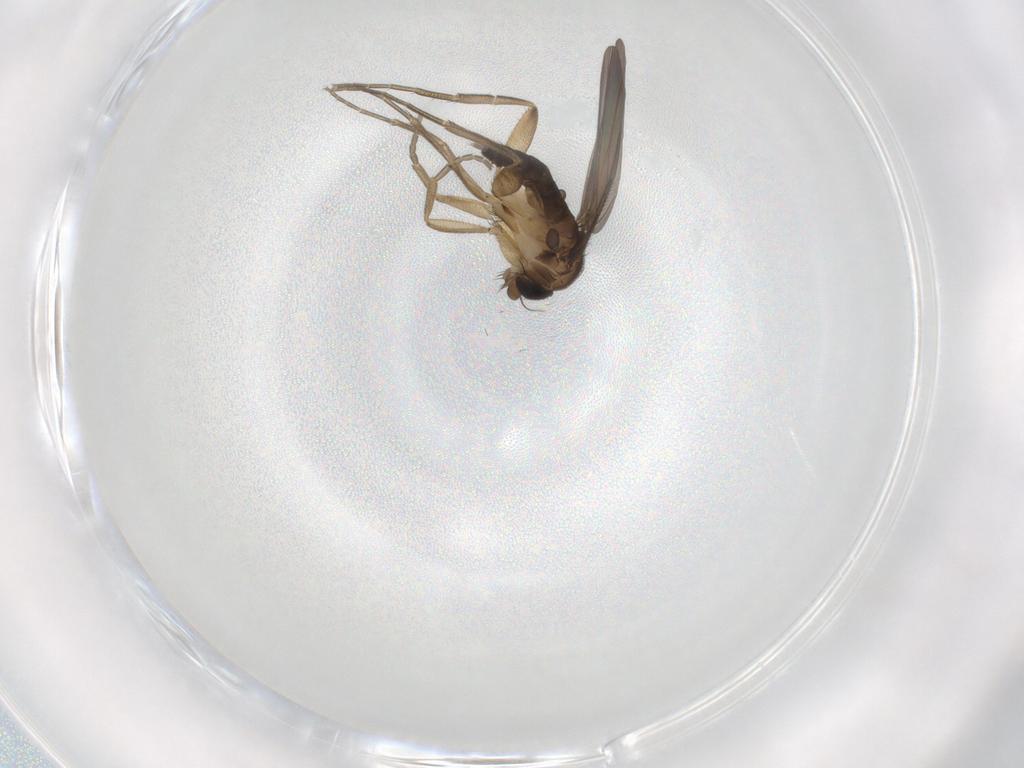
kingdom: Animalia
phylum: Arthropoda
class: Insecta
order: Diptera
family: Phoridae
